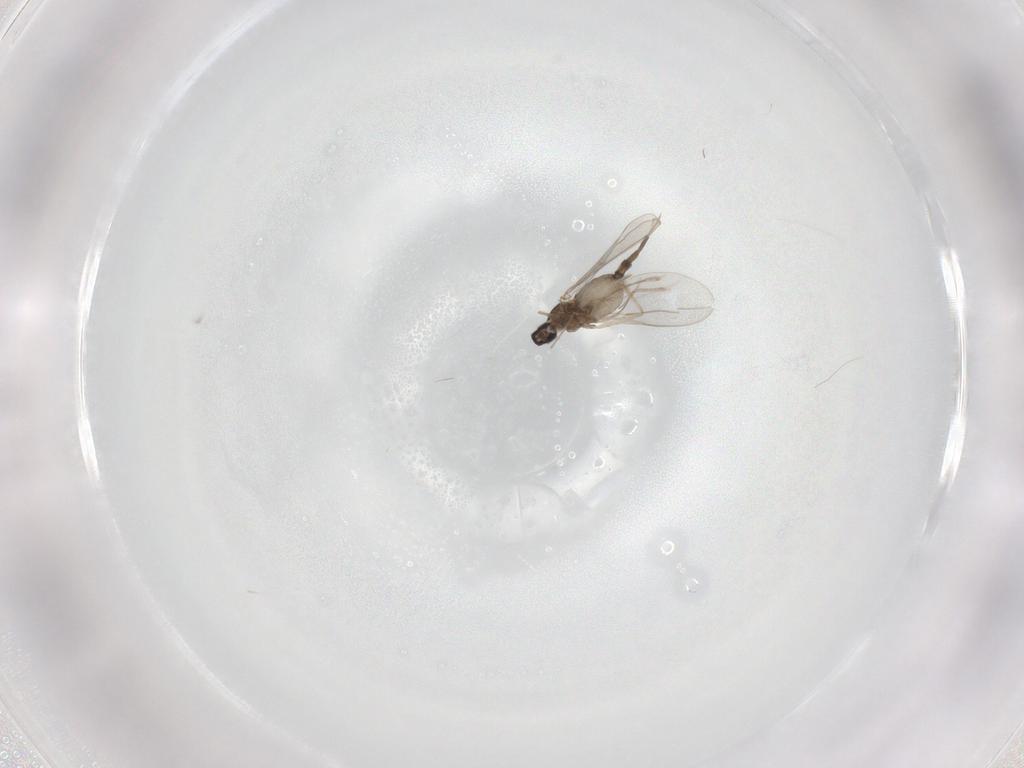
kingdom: Animalia
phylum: Arthropoda
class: Insecta
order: Diptera
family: Cecidomyiidae
